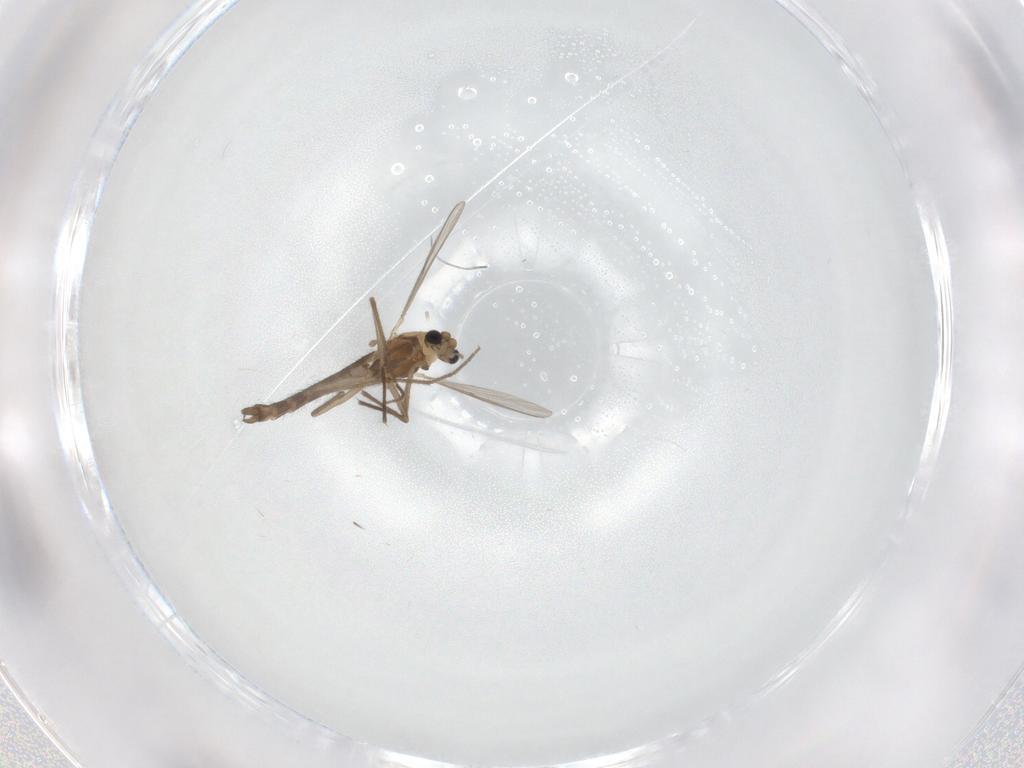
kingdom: Animalia
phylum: Arthropoda
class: Insecta
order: Diptera
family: Chironomidae
